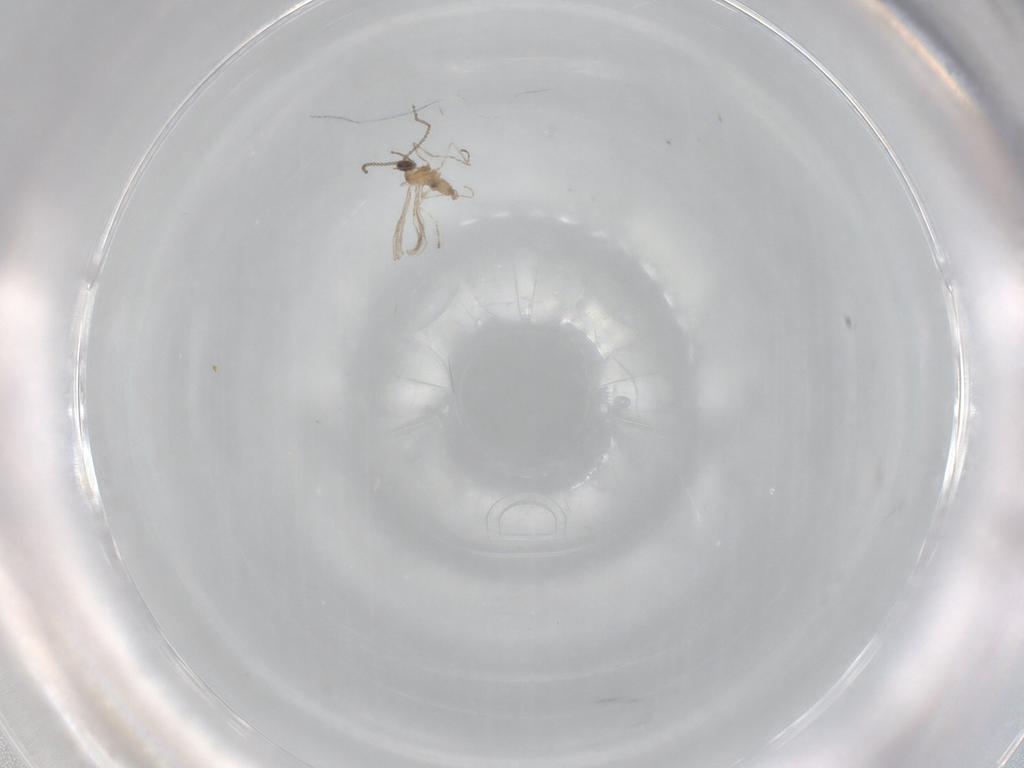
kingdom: Animalia
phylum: Arthropoda
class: Insecta
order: Diptera
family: Cecidomyiidae
